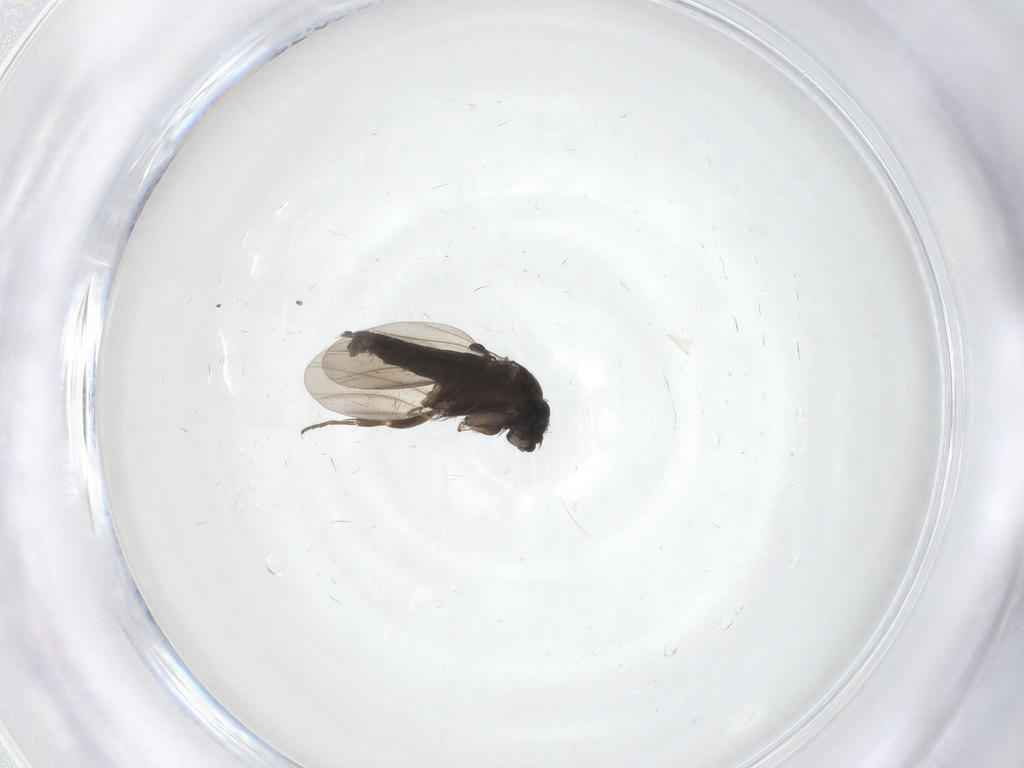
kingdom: Animalia
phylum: Arthropoda
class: Insecta
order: Diptera
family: Phoridae
